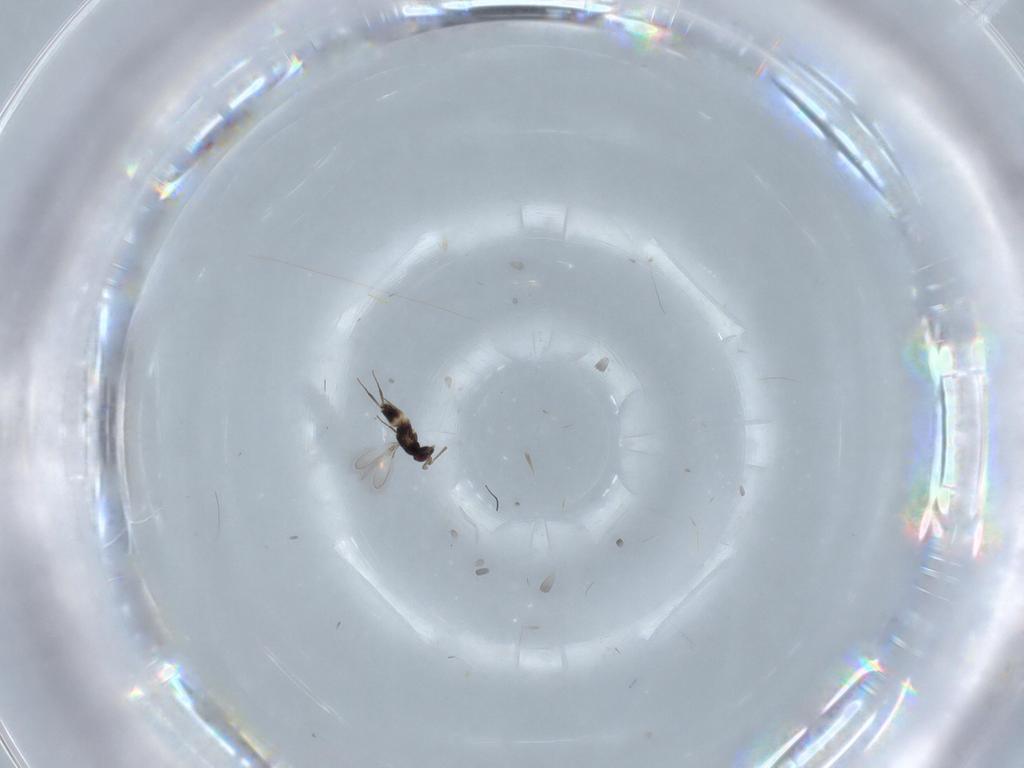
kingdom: Animalia
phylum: Arthropoda
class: Insecta
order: Hymenoptera
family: Mymaridae
